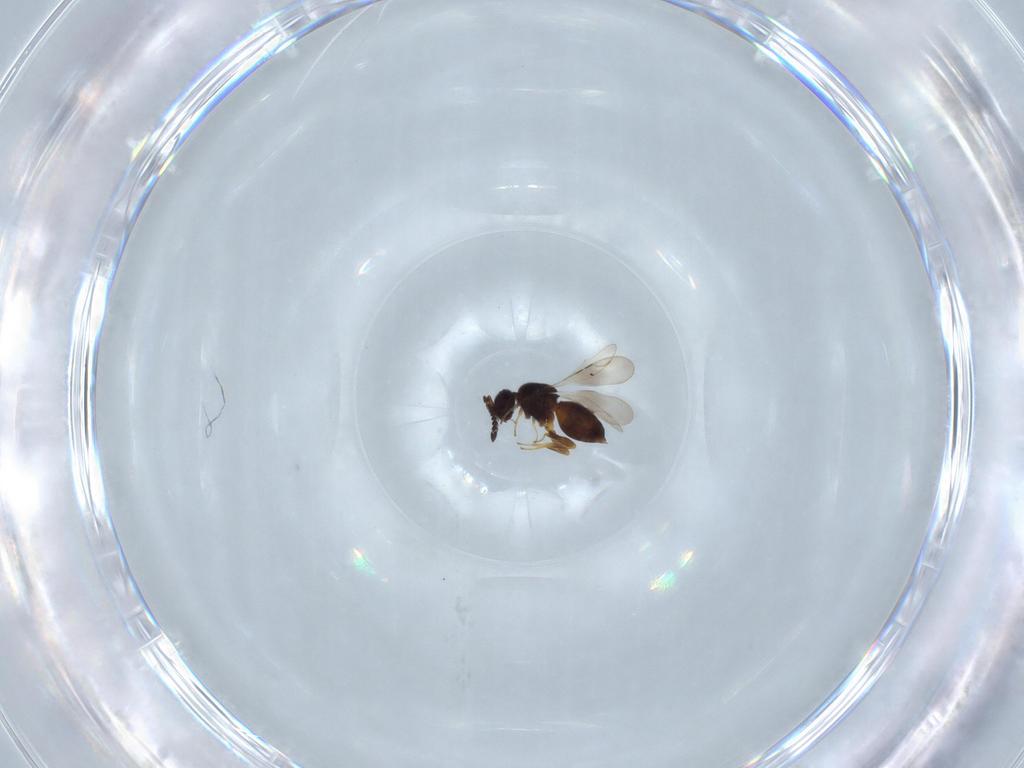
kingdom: Animalia
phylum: Arthropoda
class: Insecta
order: Hymenoptera
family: Ceraphronidae
